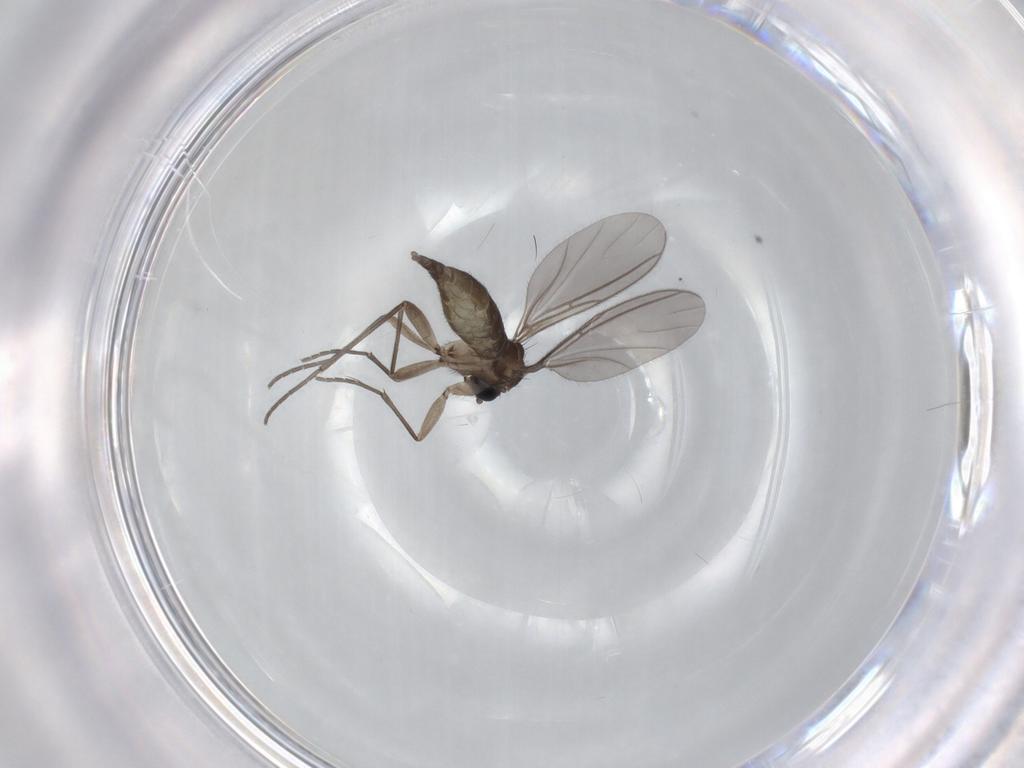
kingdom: Animalia
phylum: Arthropoda
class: Insecta
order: Diptera
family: Sciaridae
